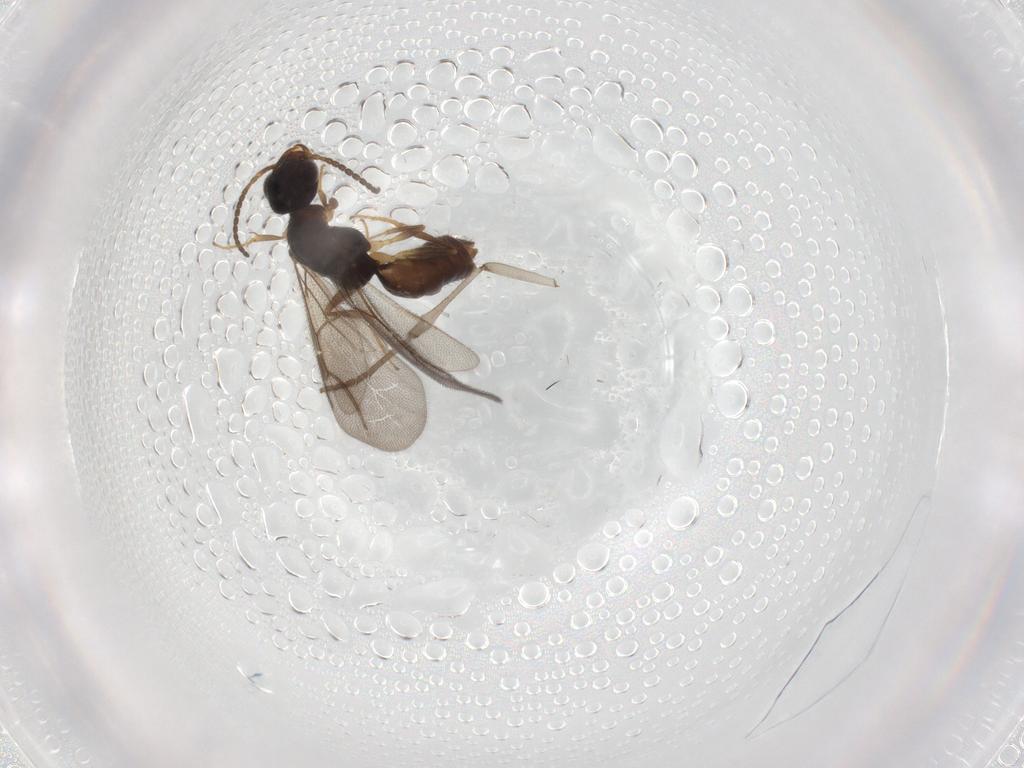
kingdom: Animalia
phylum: Arthropoda
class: Insecta
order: Hymenoptera
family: Bethylidae
